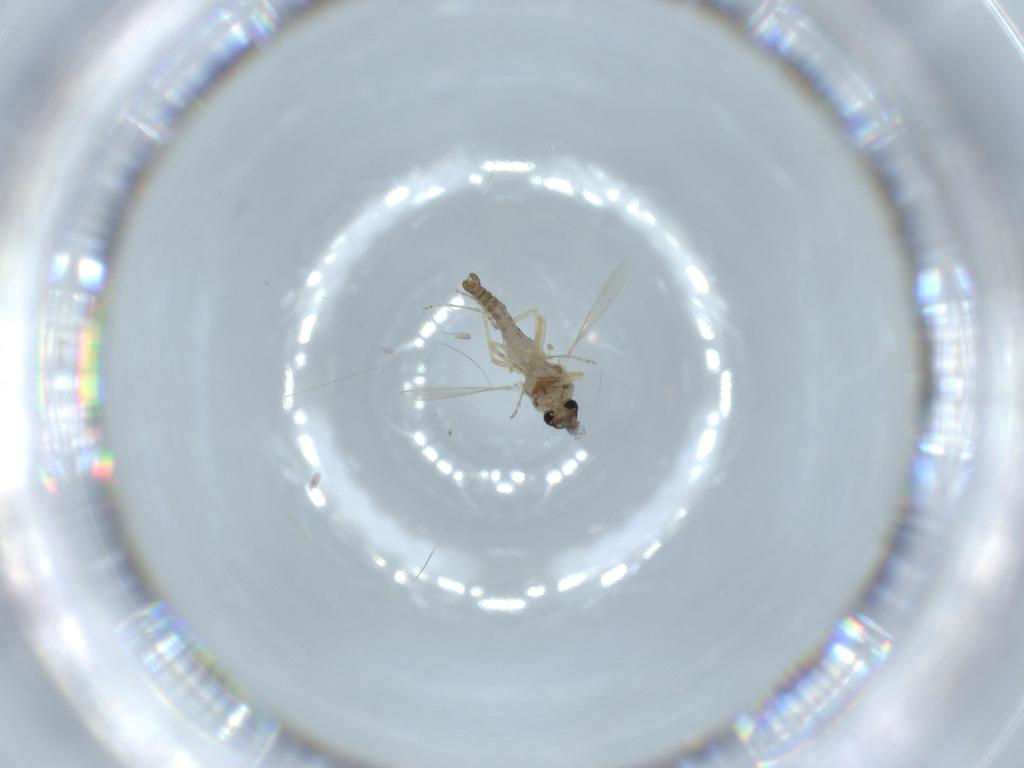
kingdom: Animalia
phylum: Arthropoda
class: Insecta
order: Diptera
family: Ceratopogonidae
